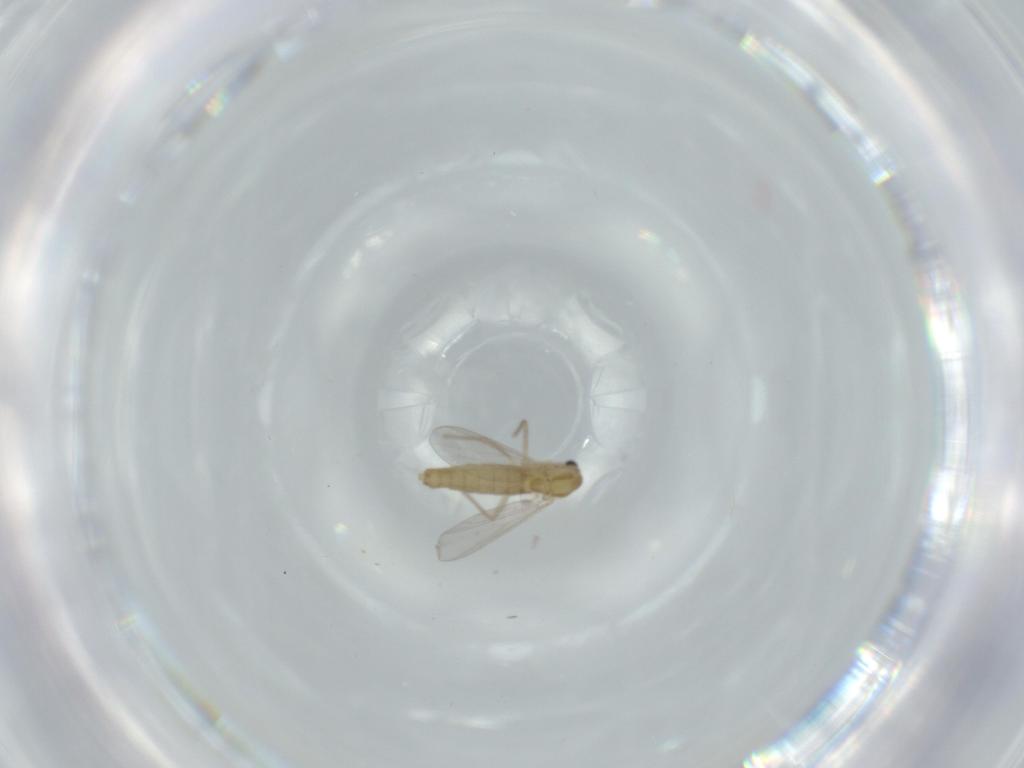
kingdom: Animalia
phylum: Arthropoda
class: Insecta
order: Diptera
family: Chironomidae
